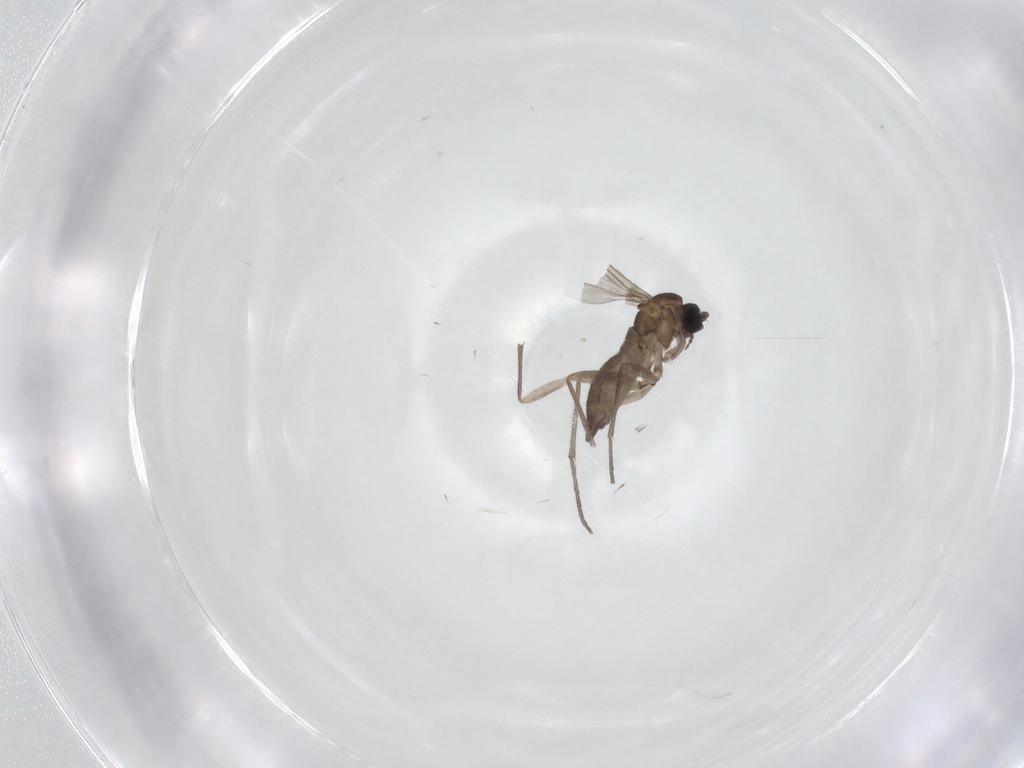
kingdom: Animalia
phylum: Arthropoda
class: Insecta
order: Diptera
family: Sciaridae
